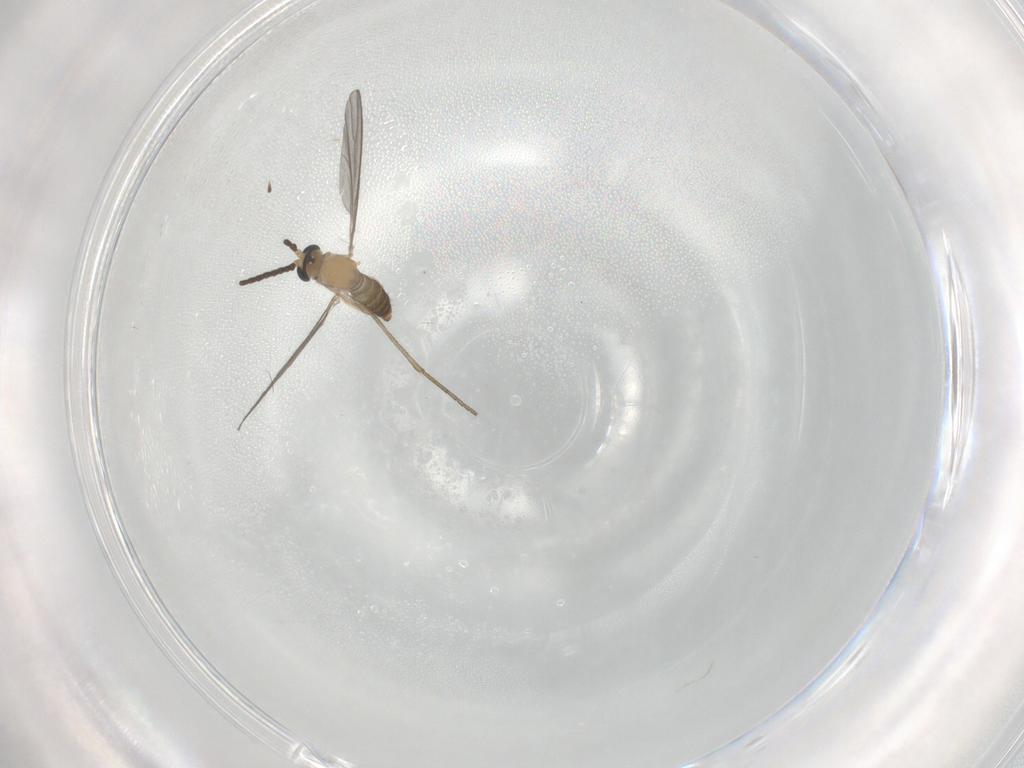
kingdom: Animalia
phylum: Arthropoda
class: Insecta
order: Diptera
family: Sciaridae
